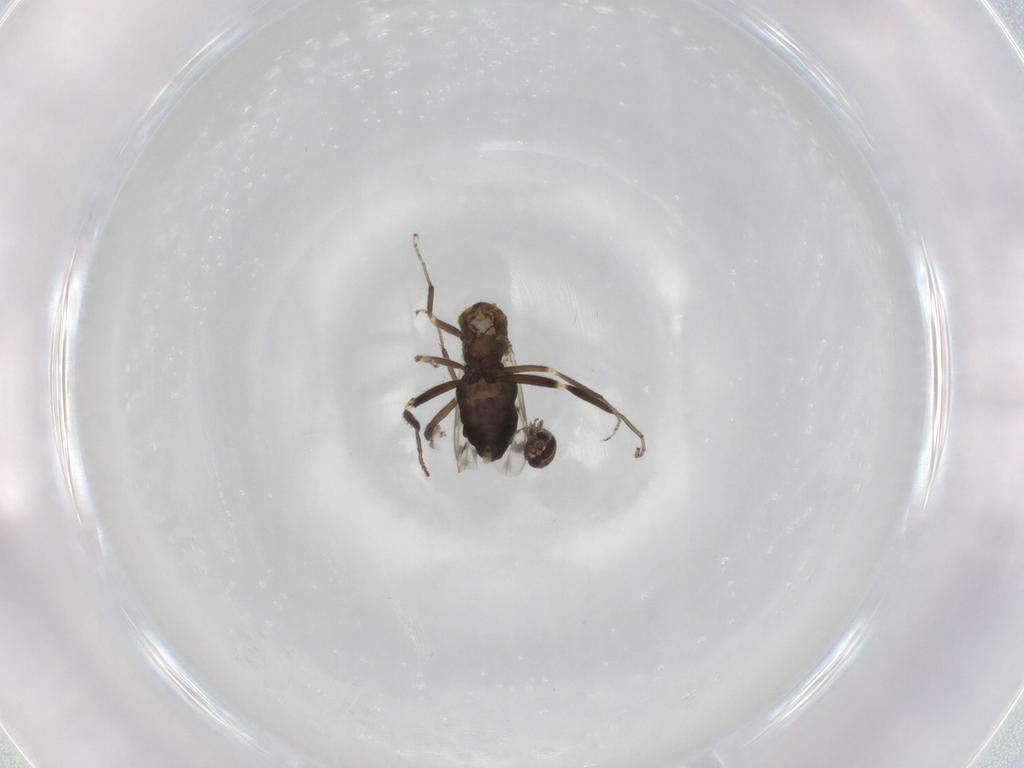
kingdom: Animalia
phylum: Arthropoda
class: Insecta
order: Diptera
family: Ceratopogonidae
